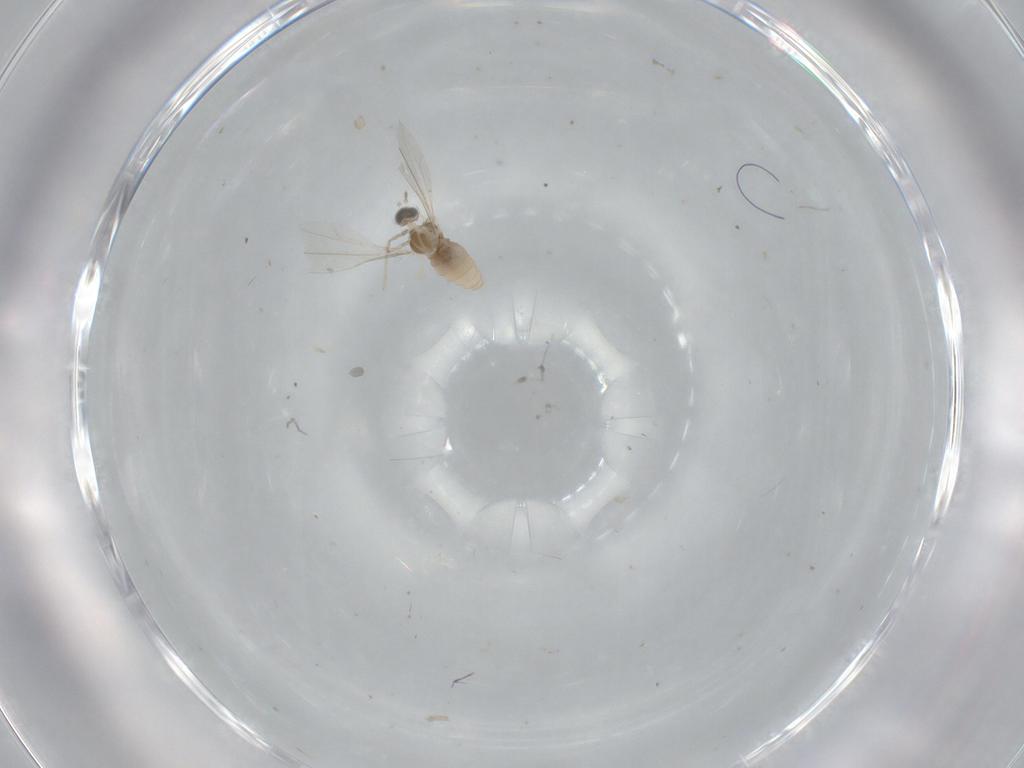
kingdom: Animalia
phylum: Arthropoda
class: Insecta
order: Diptera
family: Cecidomyiidae
